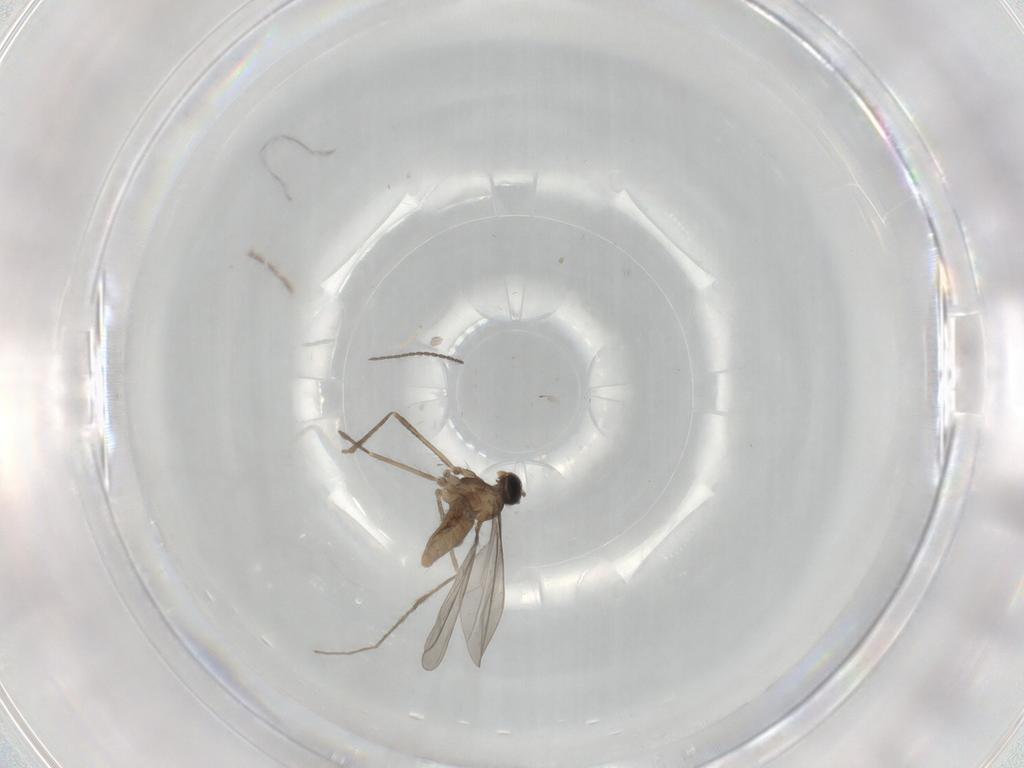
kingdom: Animalia
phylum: Arthropoda
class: Insecta
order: Diptera
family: Cecidomyiidae
